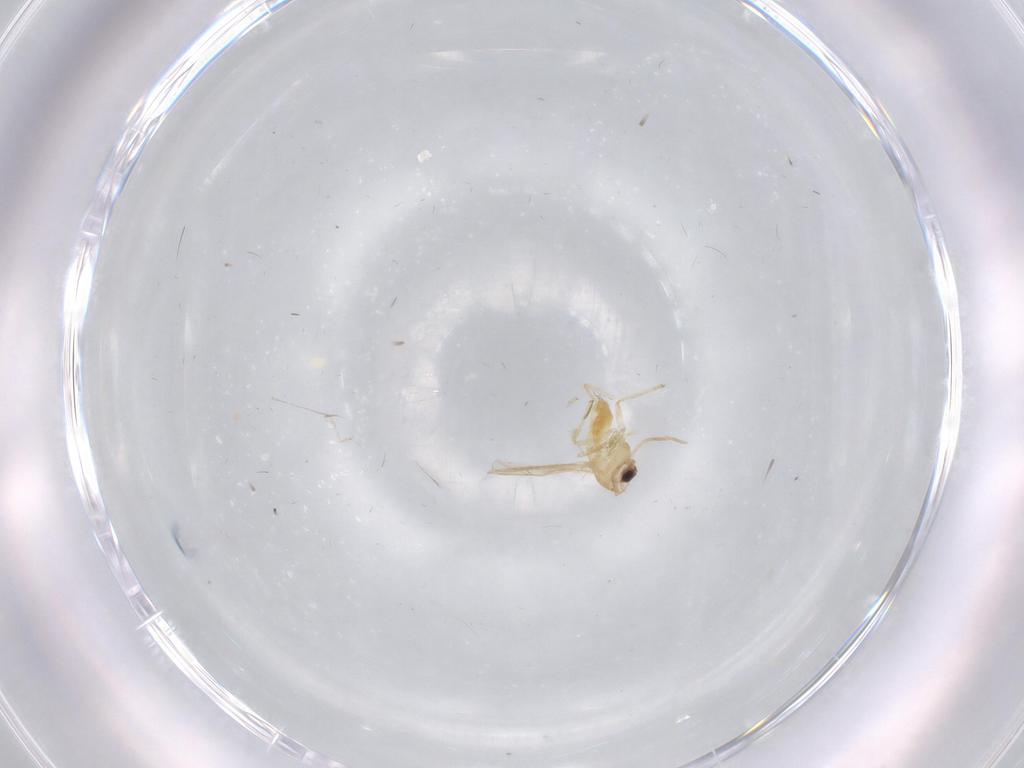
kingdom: Animalia
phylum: Arthropoda
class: Insecta
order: Diptera
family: Chironomidae
